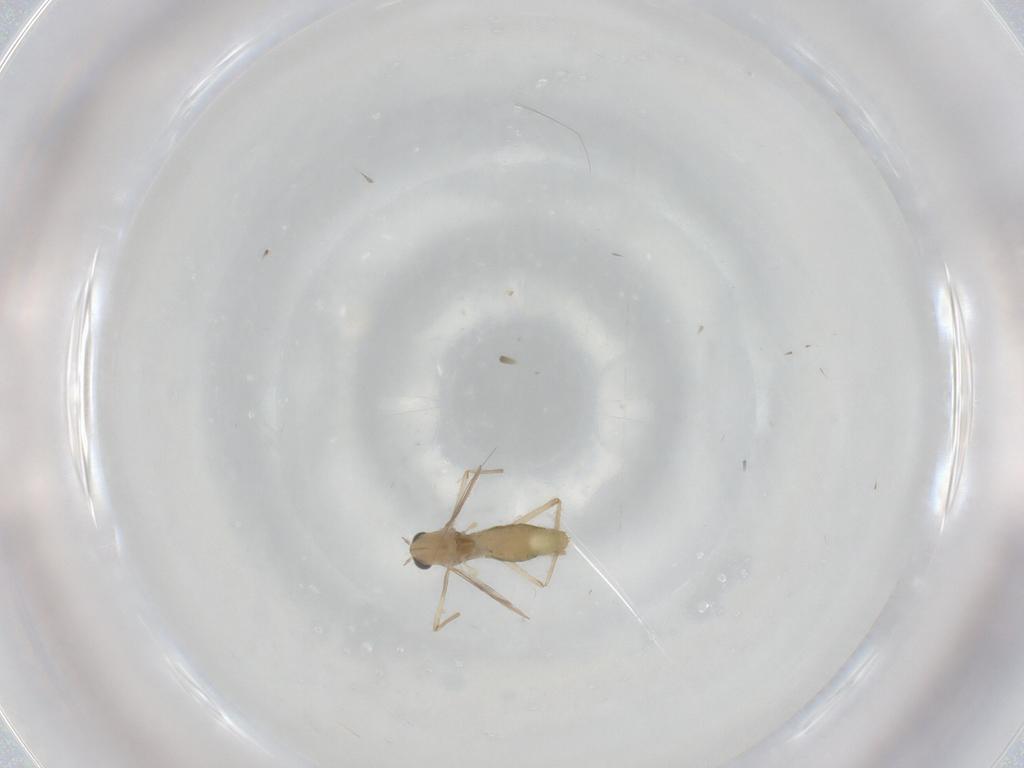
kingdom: Animalia
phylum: Arthropoda
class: Insecta
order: Diptera
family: Chironomidae
